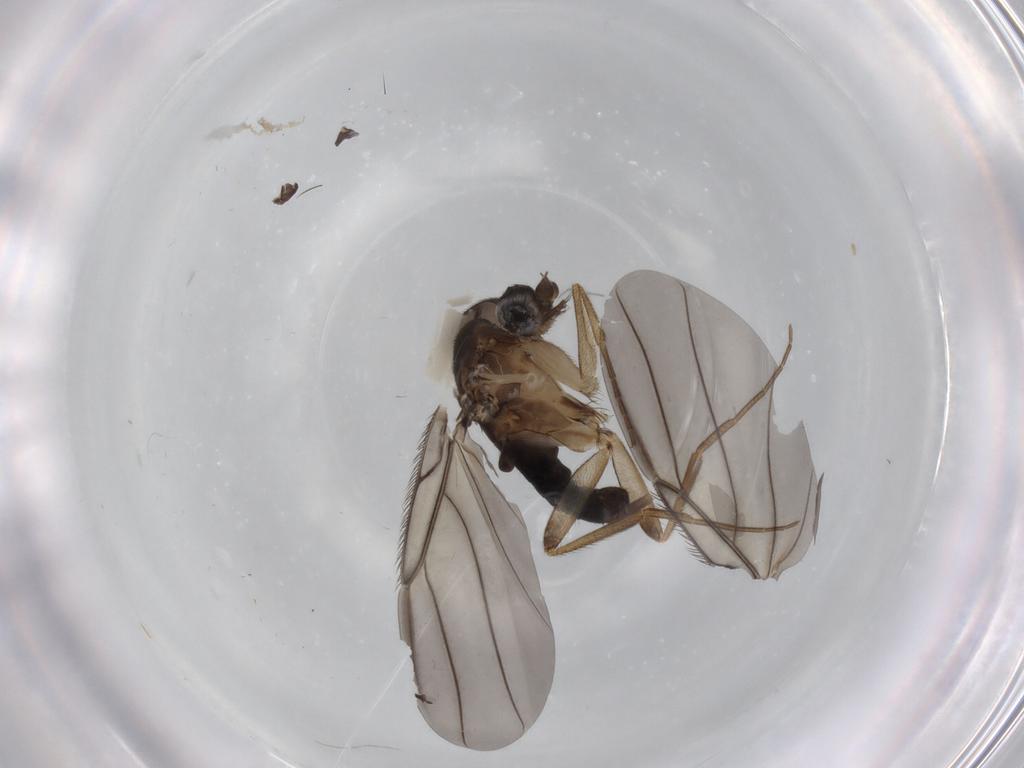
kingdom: Animalia
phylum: Arthropoda
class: Insecta
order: Diptera
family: Phoridae
